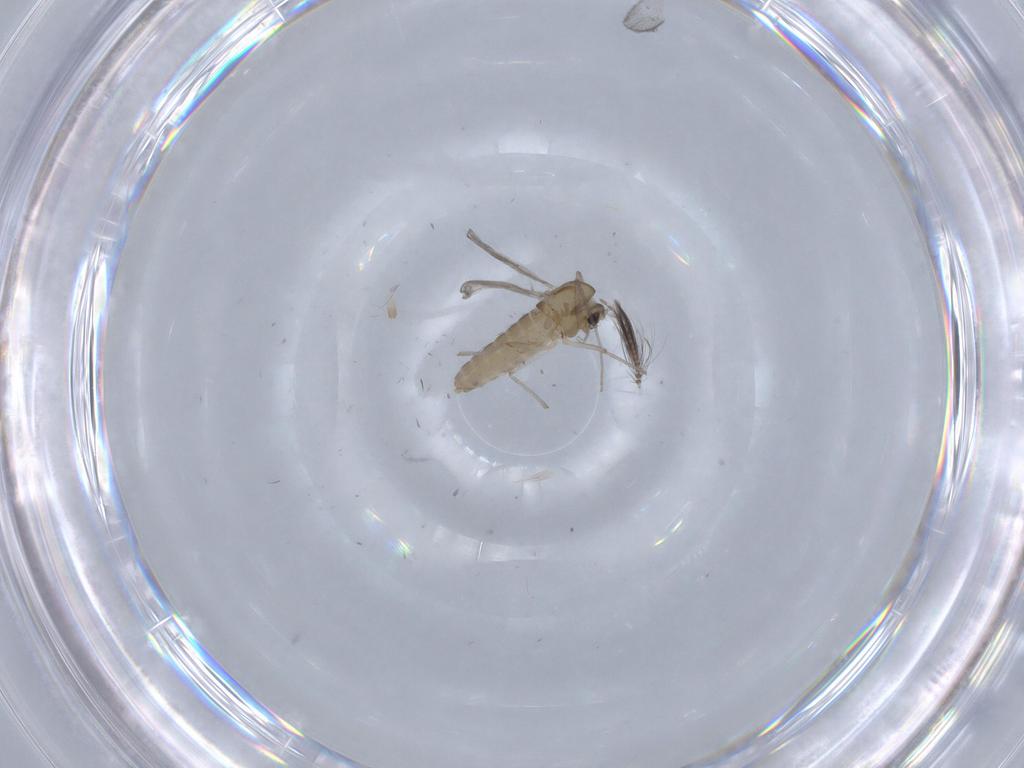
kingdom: Animalia
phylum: Arthropoda
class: Insecta
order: Diptera
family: Chironomidae
